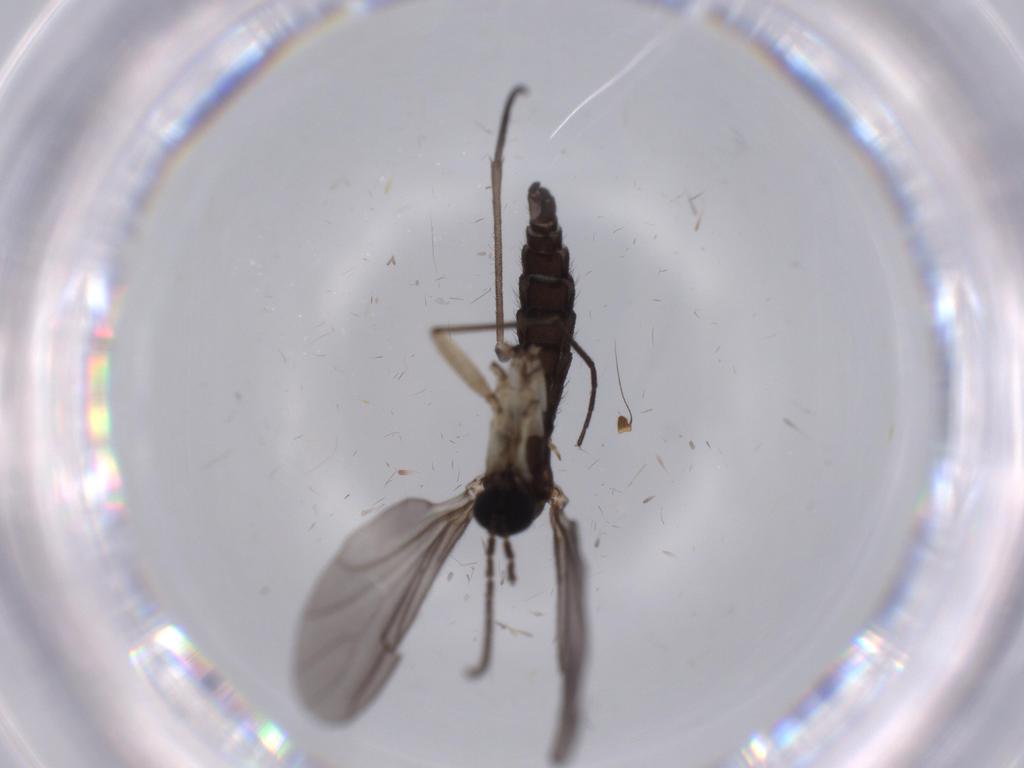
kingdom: Animalia
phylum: Arthropoda
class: Insecta
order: Diptera
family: Sciaridae
